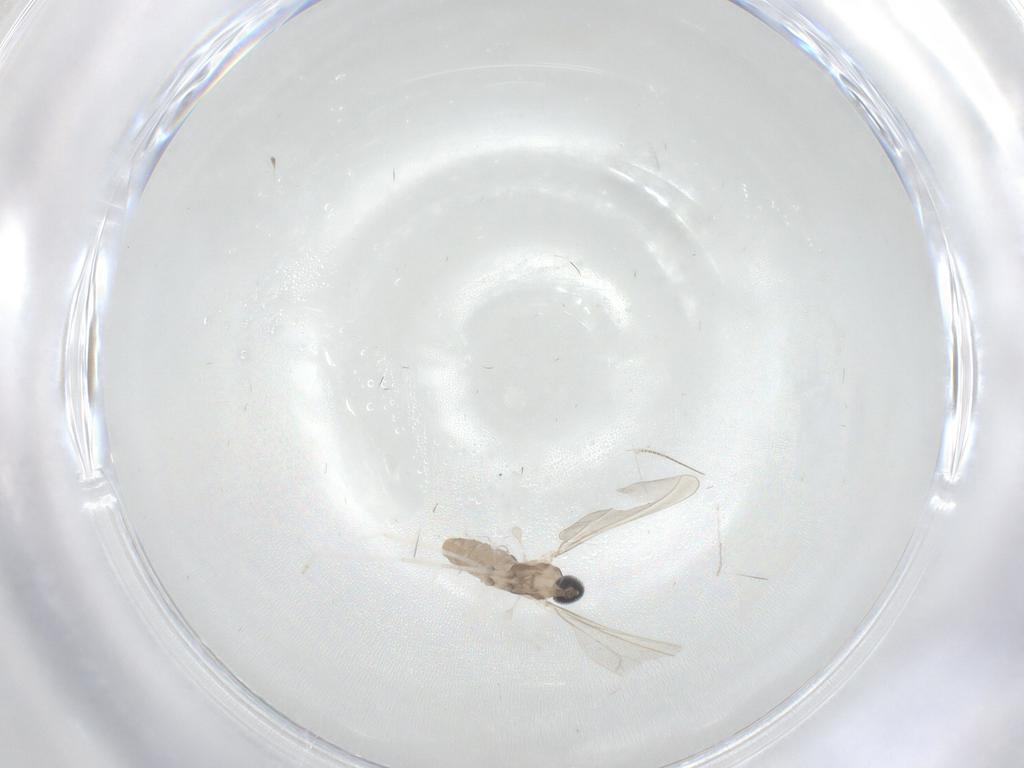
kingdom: Animalia
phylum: Arthropoda
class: Insecta
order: Diptera
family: Cecidomyiidae
